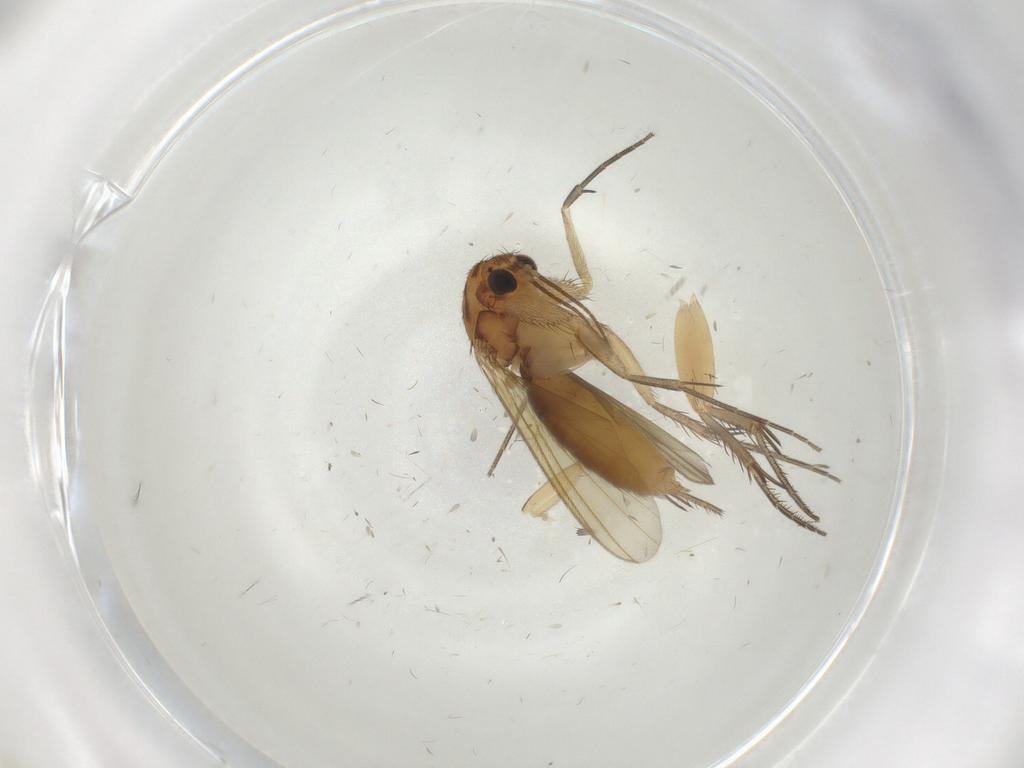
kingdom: Animalia
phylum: Arthropoda
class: Insecta
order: Diptera
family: Mycetophilidae
